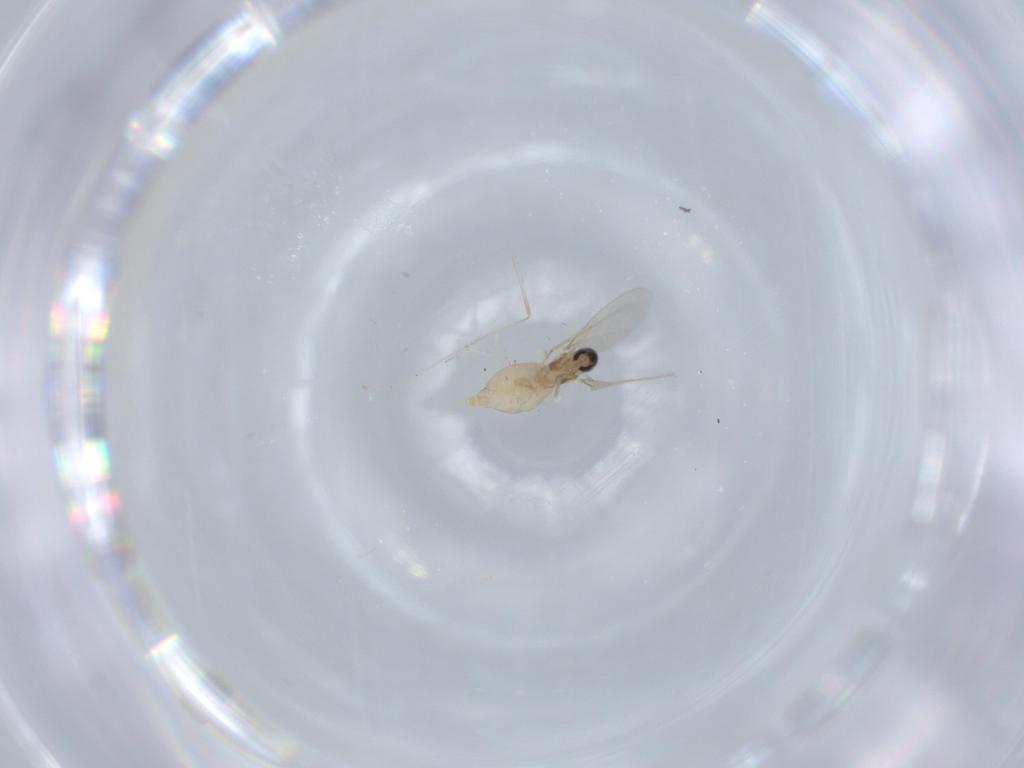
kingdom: Animalia
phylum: Arthropoda
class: Insecta
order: Diptera
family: Cecidomyiidae
